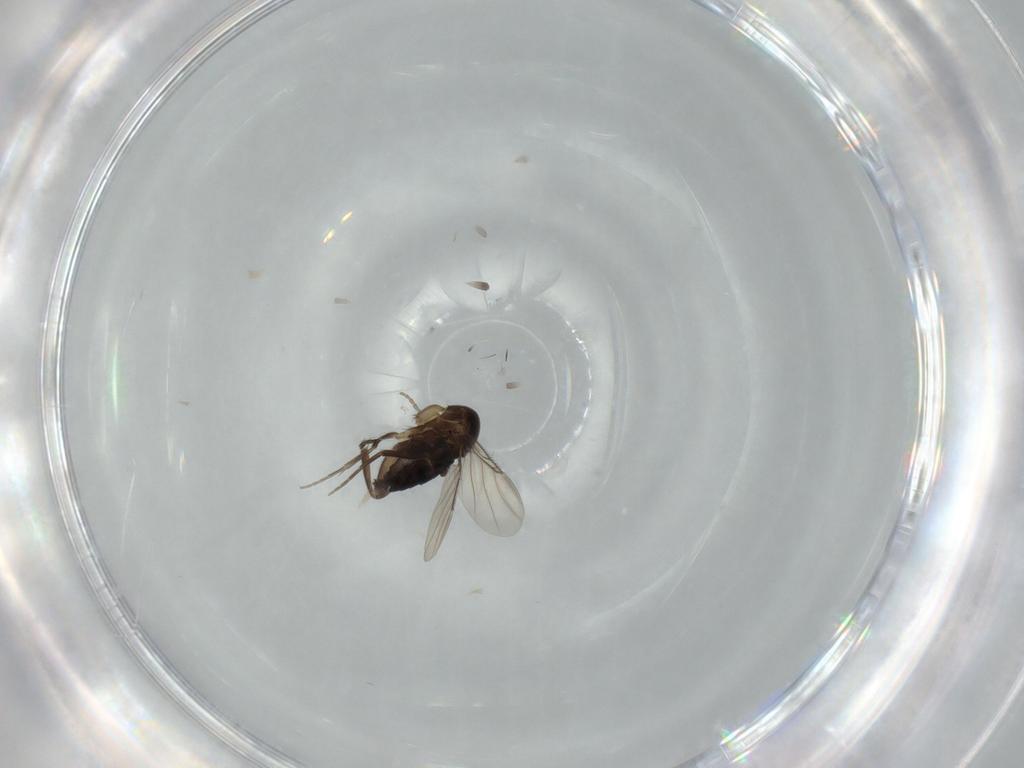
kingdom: Animalia
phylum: Arthropoda
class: Insecta
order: Diptera
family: Phoridae
